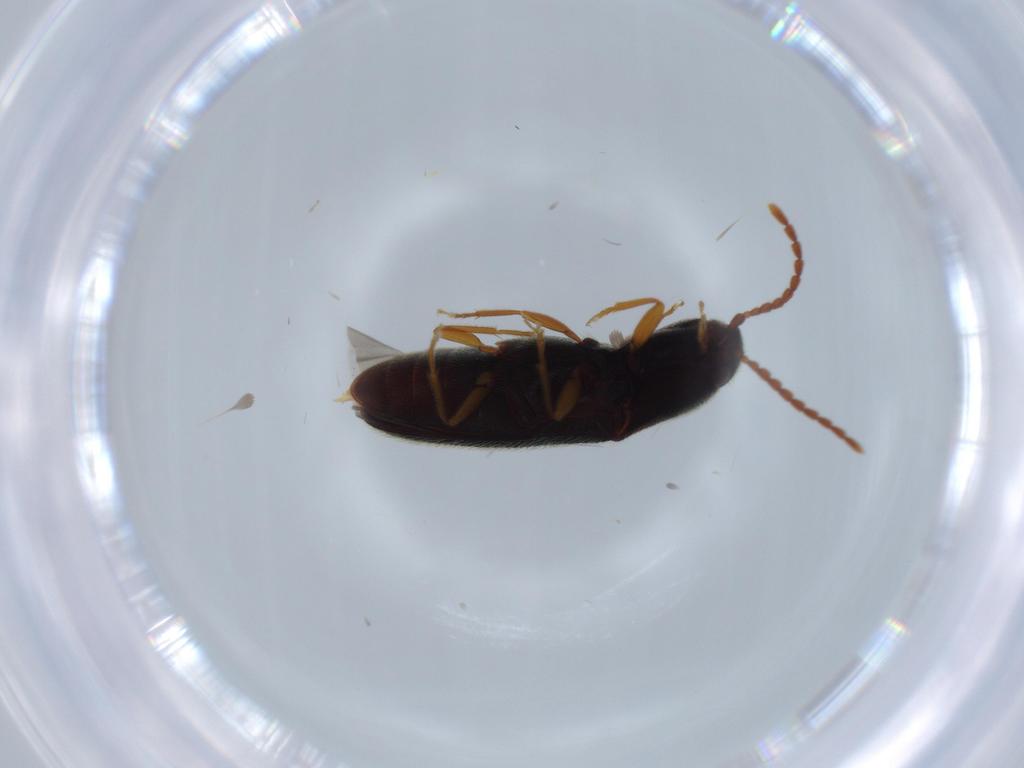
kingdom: Animalia
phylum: Arthropoda
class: Insecta
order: Coleoptera
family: Chrysomelidae
